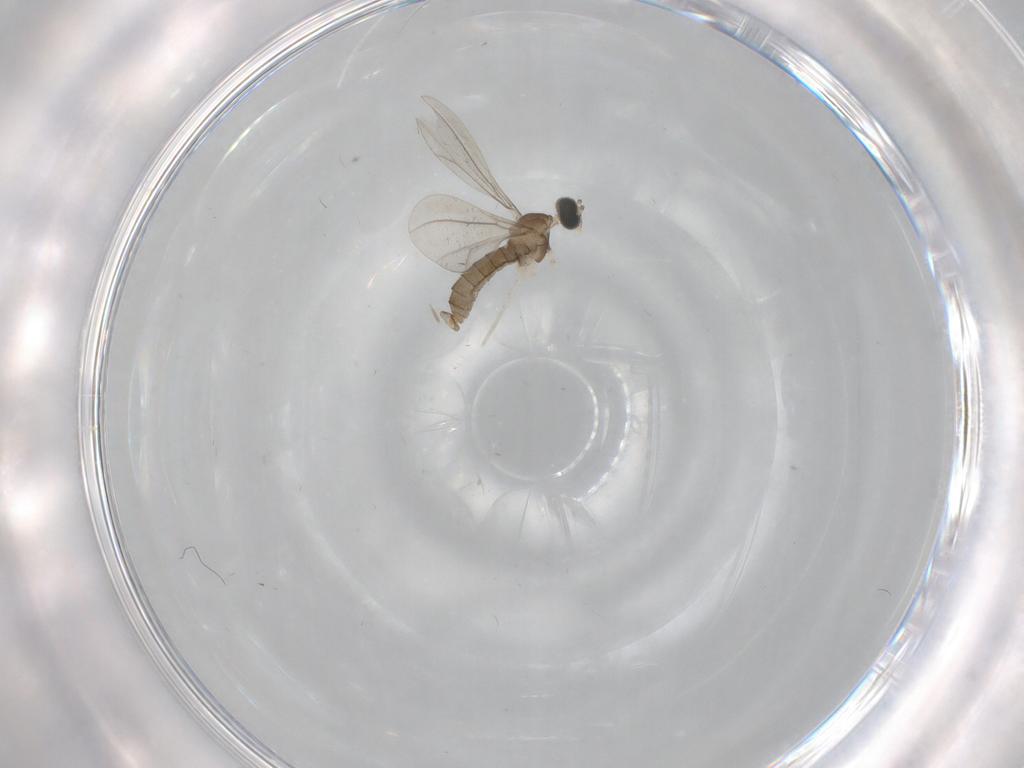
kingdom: Animalia
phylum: Arthropoda
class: Insecta
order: Diptera
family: Cecidomyiidae
